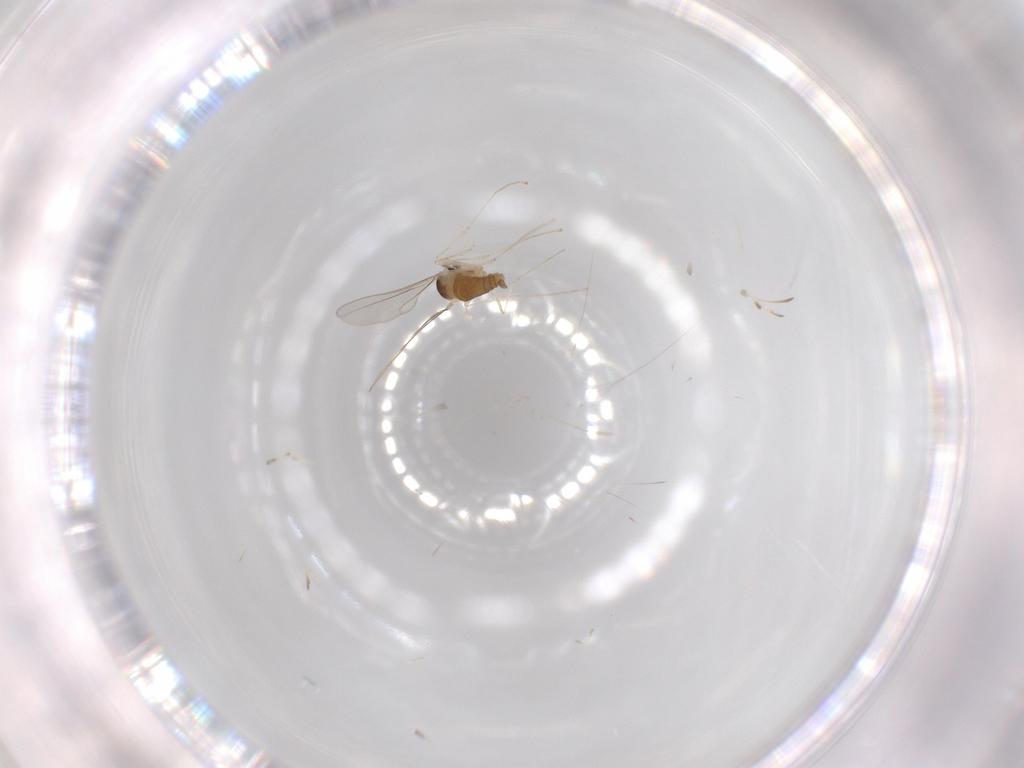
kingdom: Animalia
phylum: Arthropoda
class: Insecta
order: Diptera
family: Cecidomyiidae
